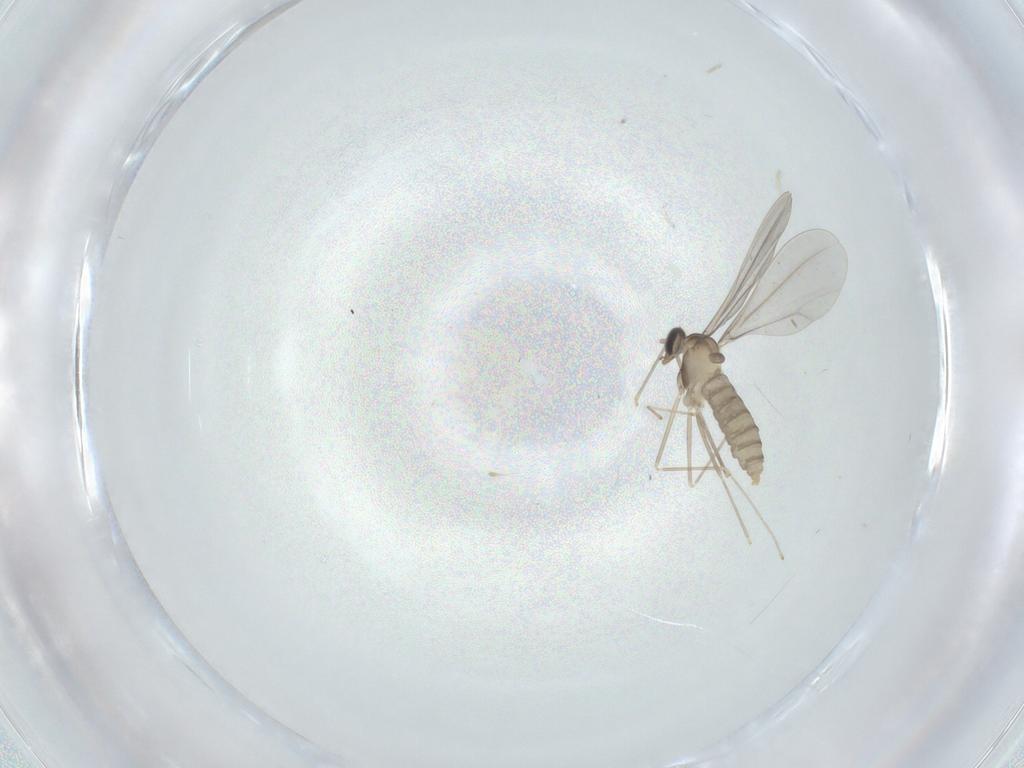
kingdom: Animalia
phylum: Arthropoda
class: Insecta
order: Diptera
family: Cecidomyiidae
